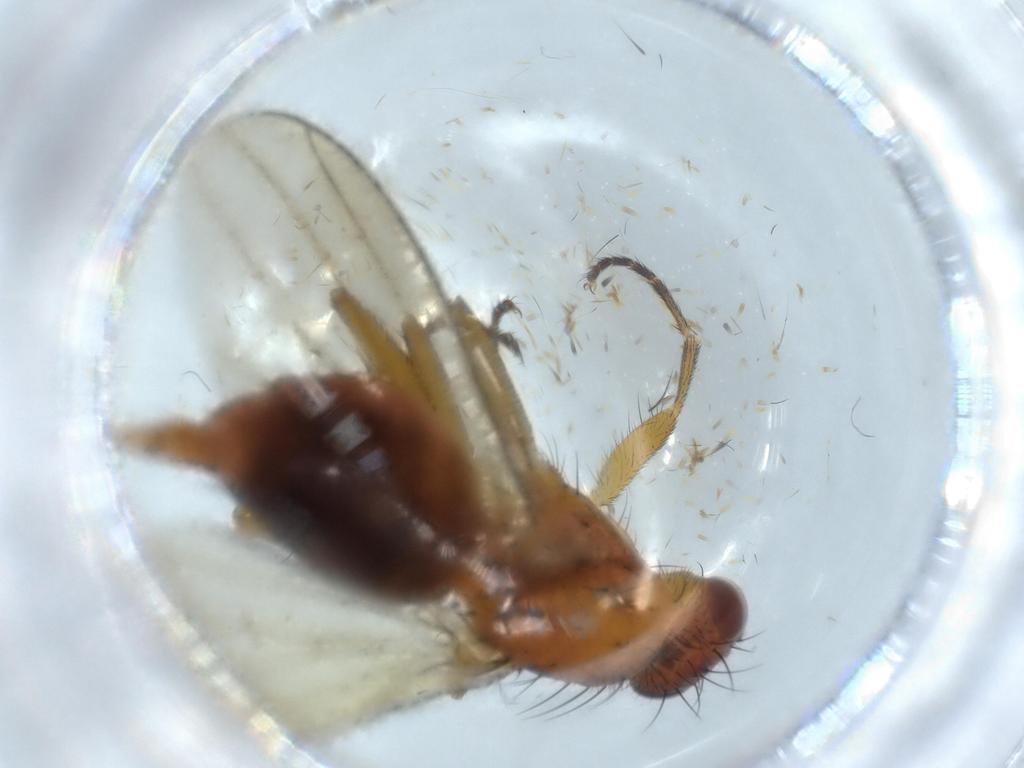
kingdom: Animalia
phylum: Arthropoda
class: Insecta
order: Diptera
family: Heleomyzidae
